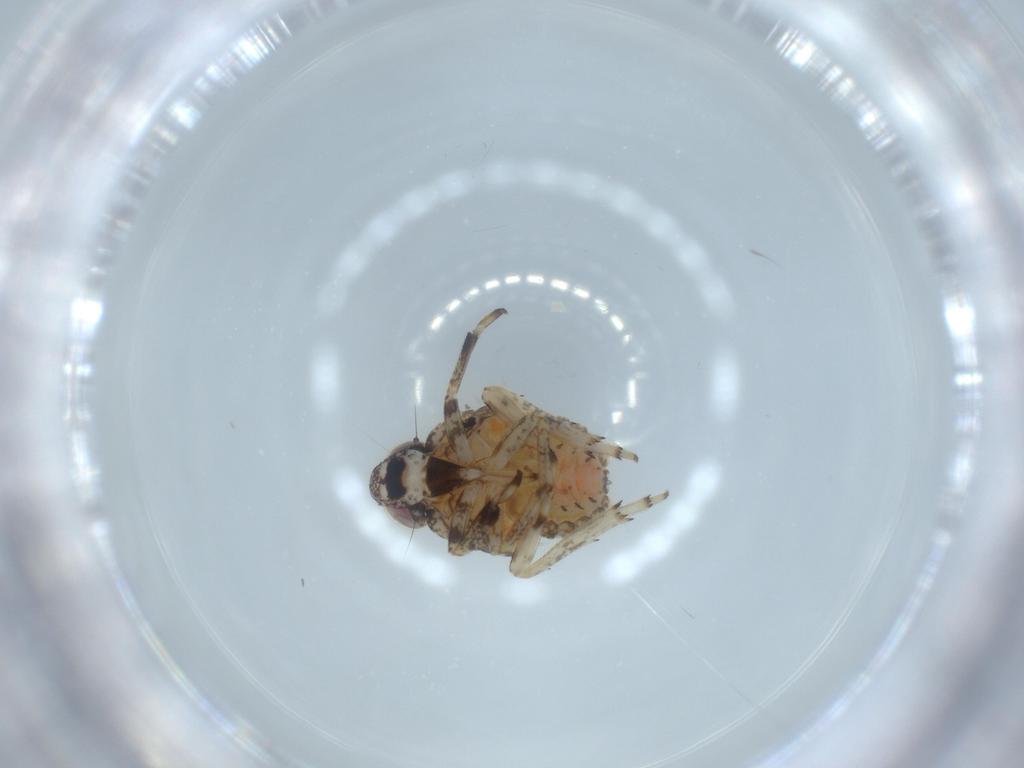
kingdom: Animalia
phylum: Arthropoda
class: Insecta
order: Hemiptera
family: Issidae
